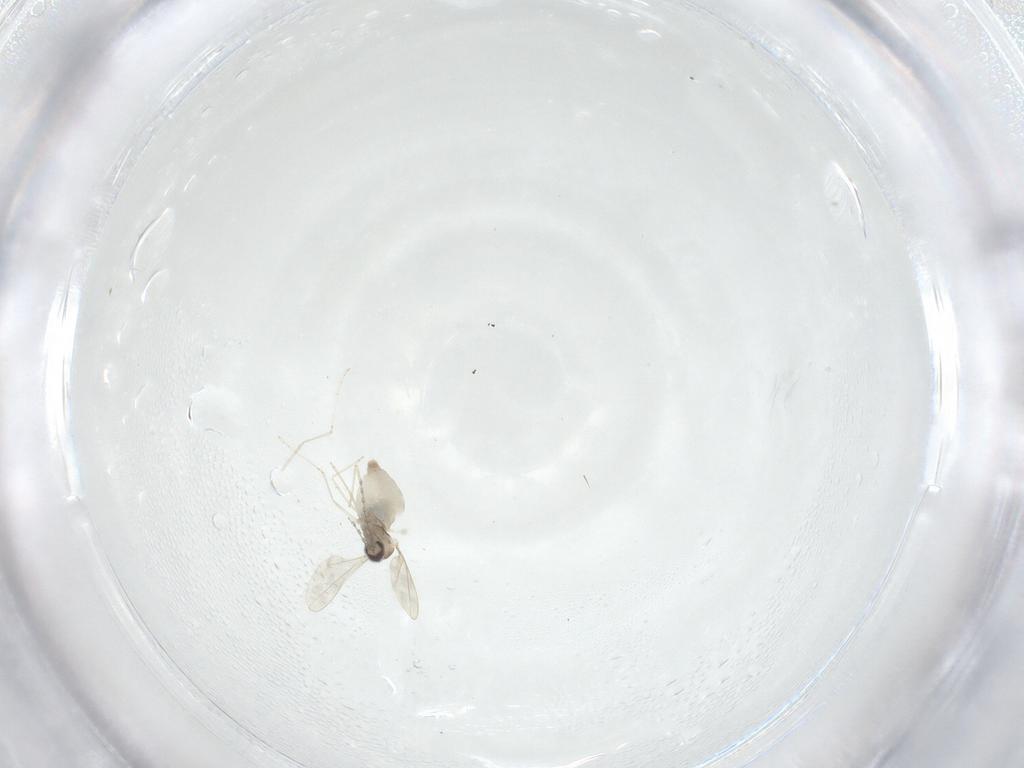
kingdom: Animalia
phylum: Arthropoda
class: Insecta
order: Diptera
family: Cecidomyiidae
